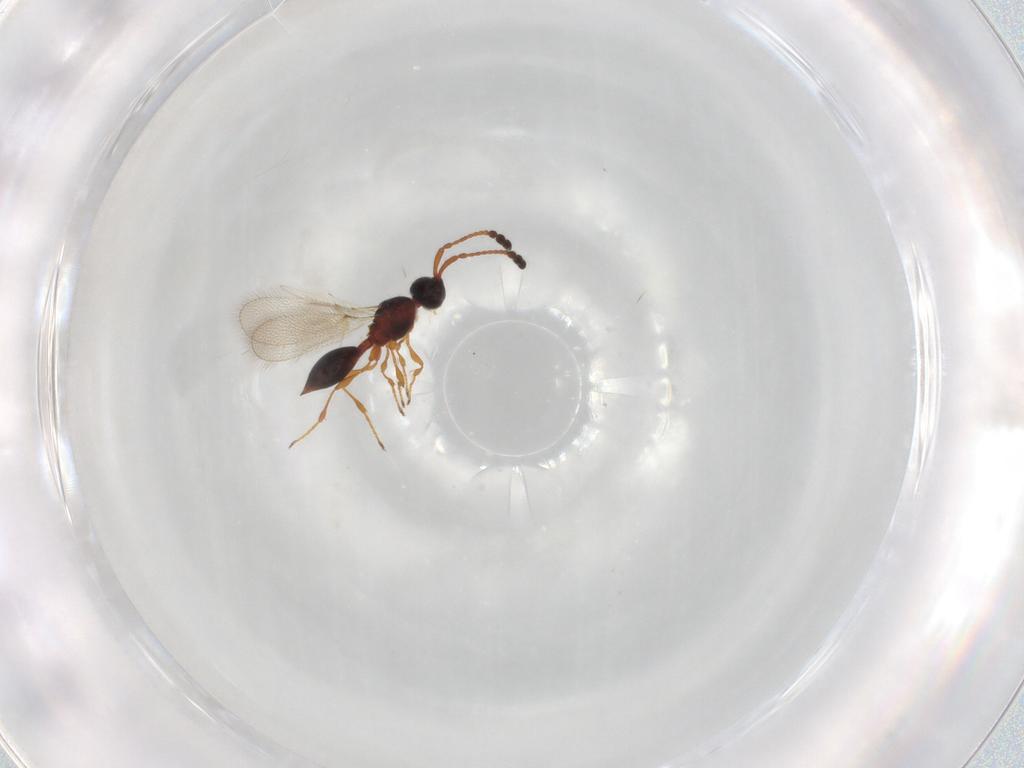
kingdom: Animalia
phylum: Arthropoda
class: Insecta
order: Hymenoptera
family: Diapriidae
